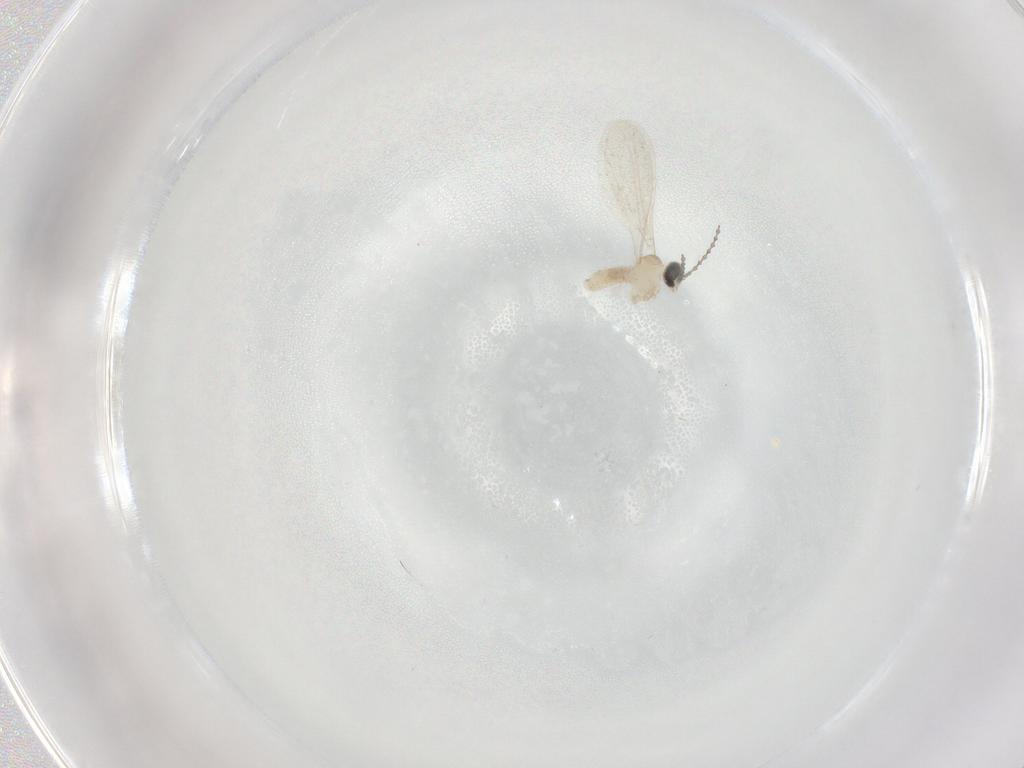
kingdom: Animalia
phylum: Arthropoda
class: Insecta
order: Diptera
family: Cecidomyiidae
